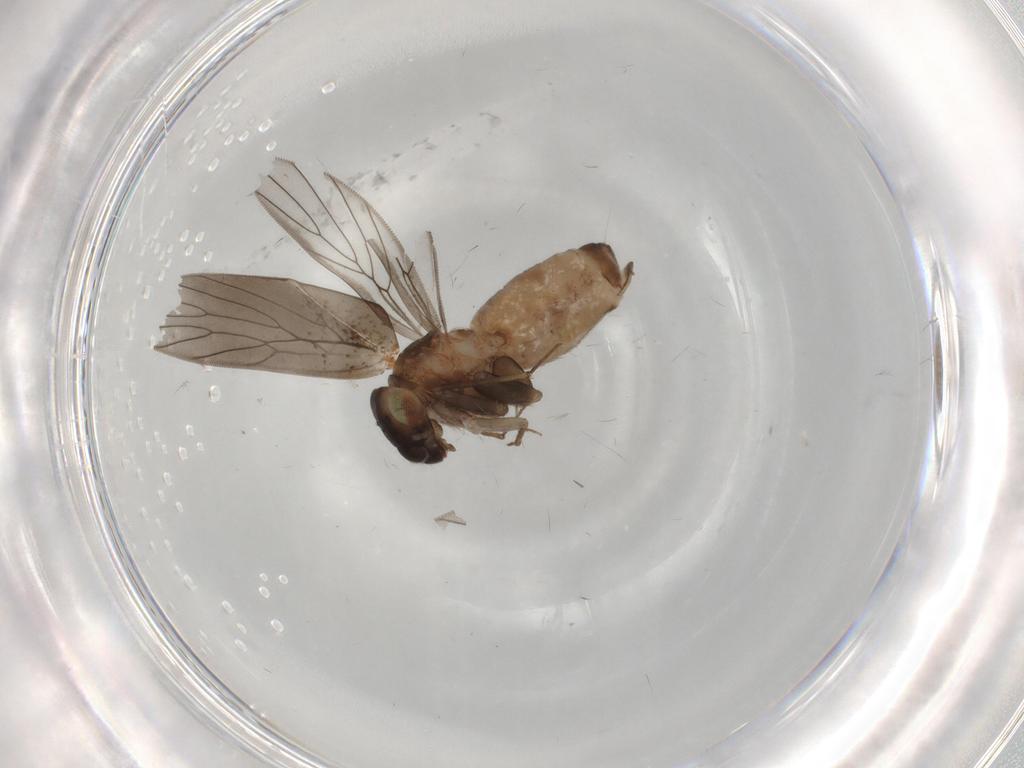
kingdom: Animalia
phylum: Arthropoda
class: Insecta
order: Psocodea
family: Lepidopsocidae
